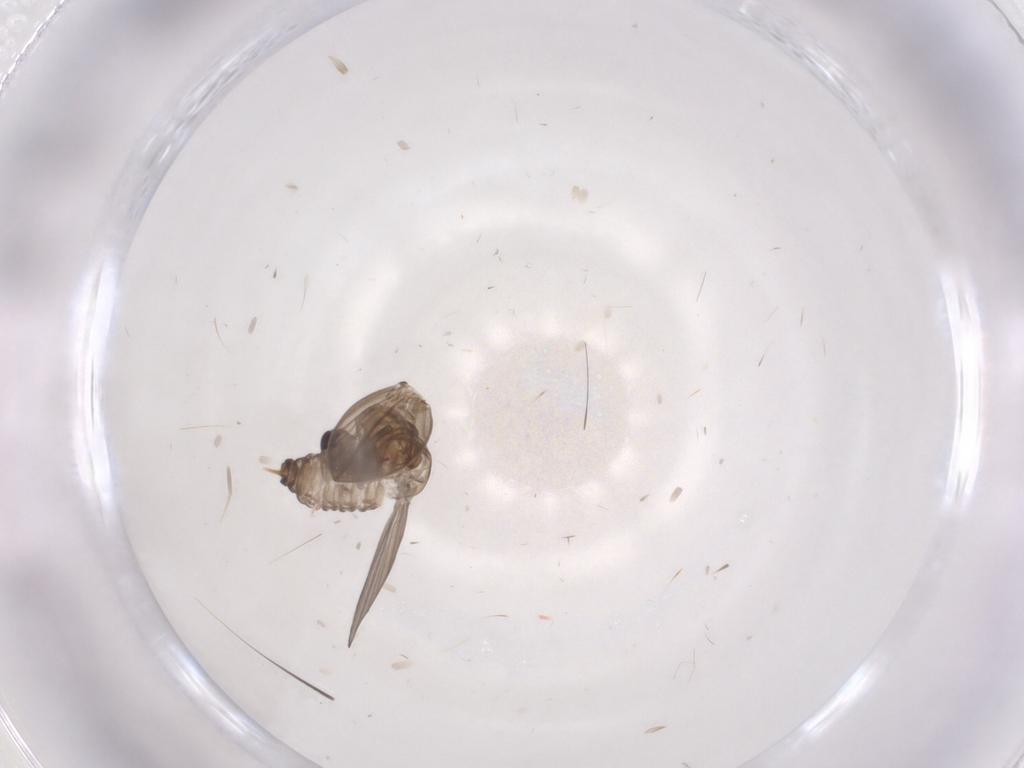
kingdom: Animalia
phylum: Arthropoda
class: Insecta
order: Diptera
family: Psychodidae
